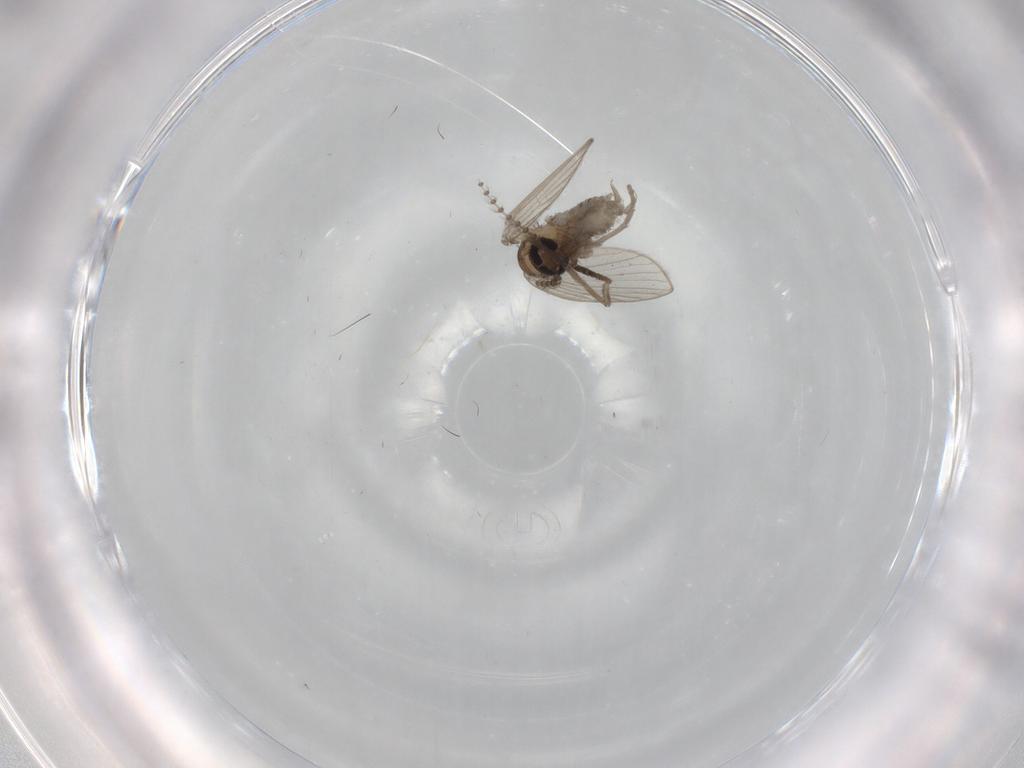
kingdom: Animalia
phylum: Arthropoda
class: Insecta
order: Diptera
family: Psychodidae
